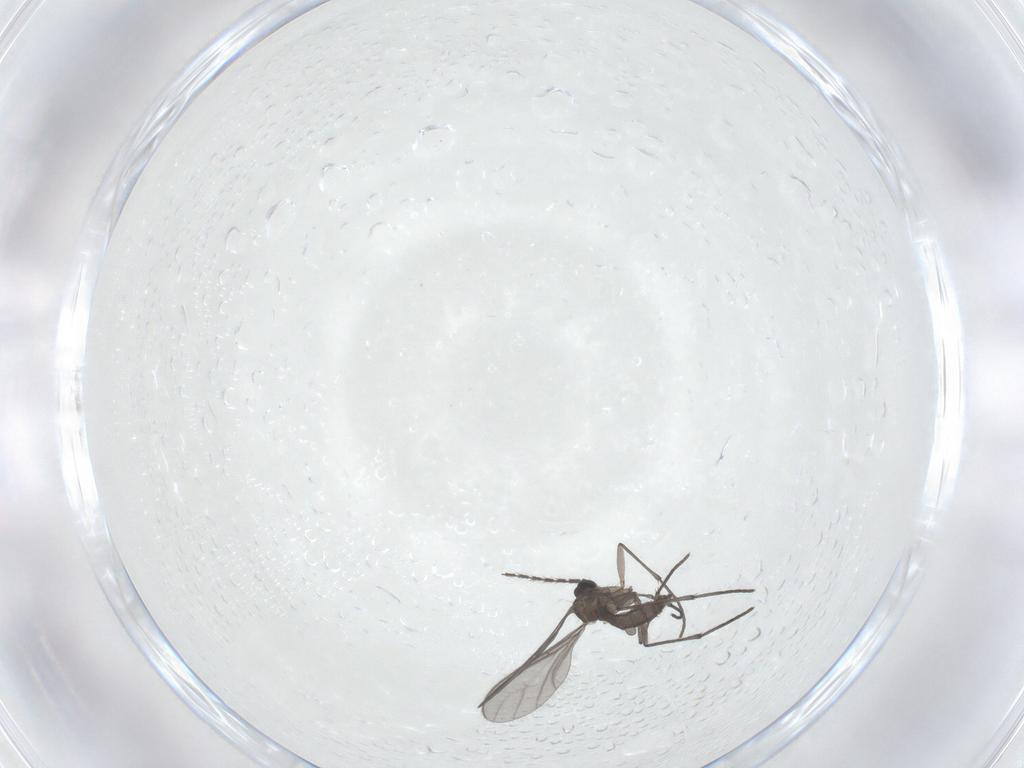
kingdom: Animalia
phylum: Arthropoda
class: Insecta
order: Diptera
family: Sciaridae
